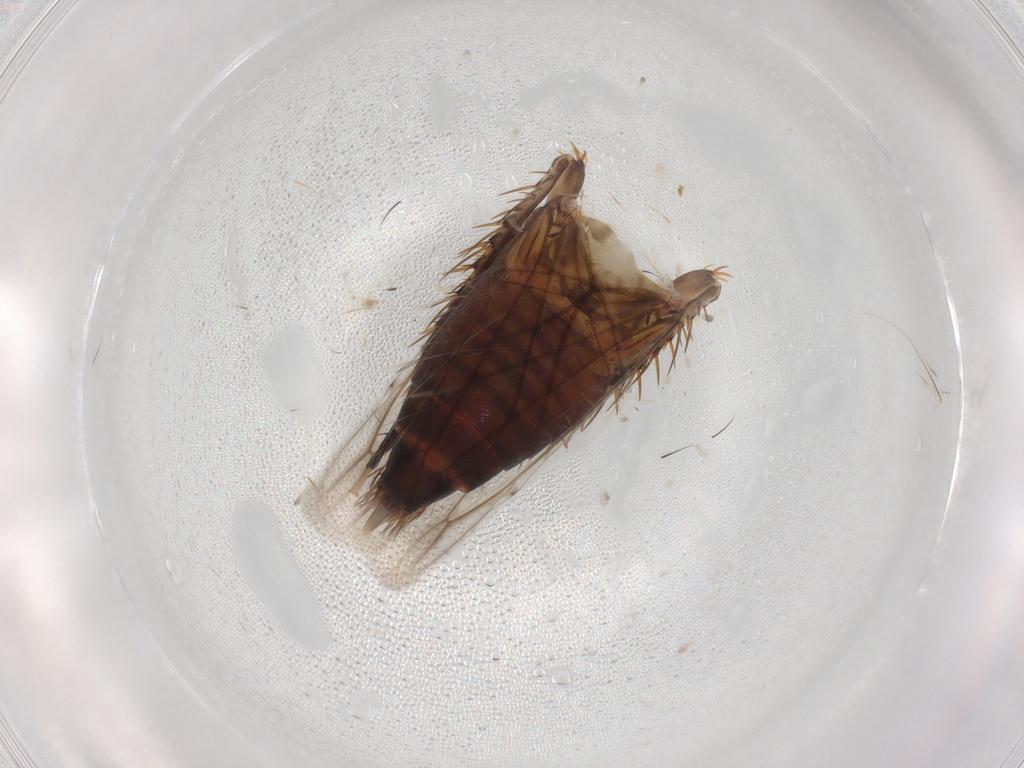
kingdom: Animalia
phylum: Arthropoda
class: Insecta
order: Hemiptera
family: Cicadellidae
